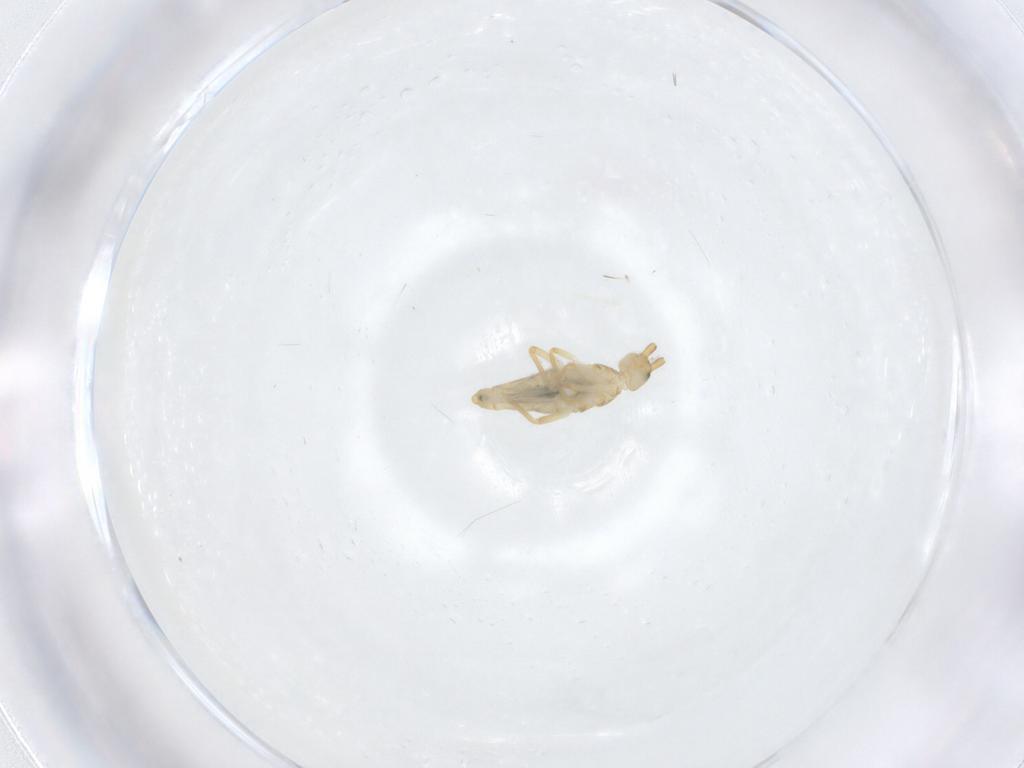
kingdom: Animalia
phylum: Arthropoda
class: Collembola
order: Entomobryomorpha
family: Entomobryidae
